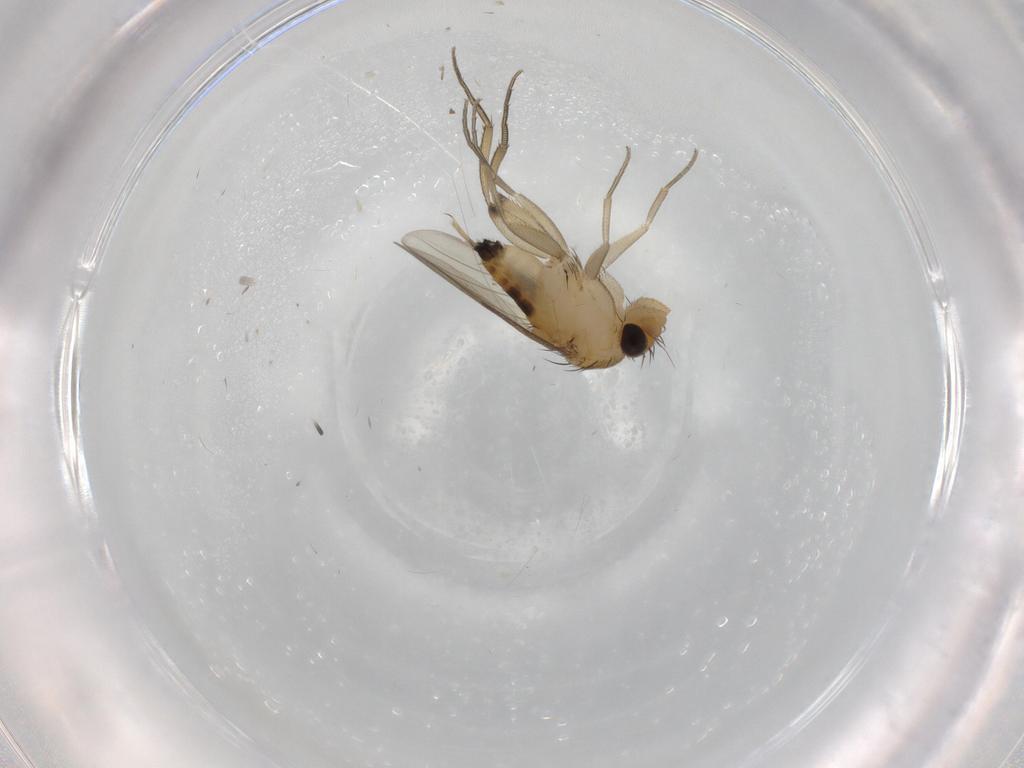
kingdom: Animalia
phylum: Arthropoda
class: Insecta
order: Diptera
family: Phoridae
